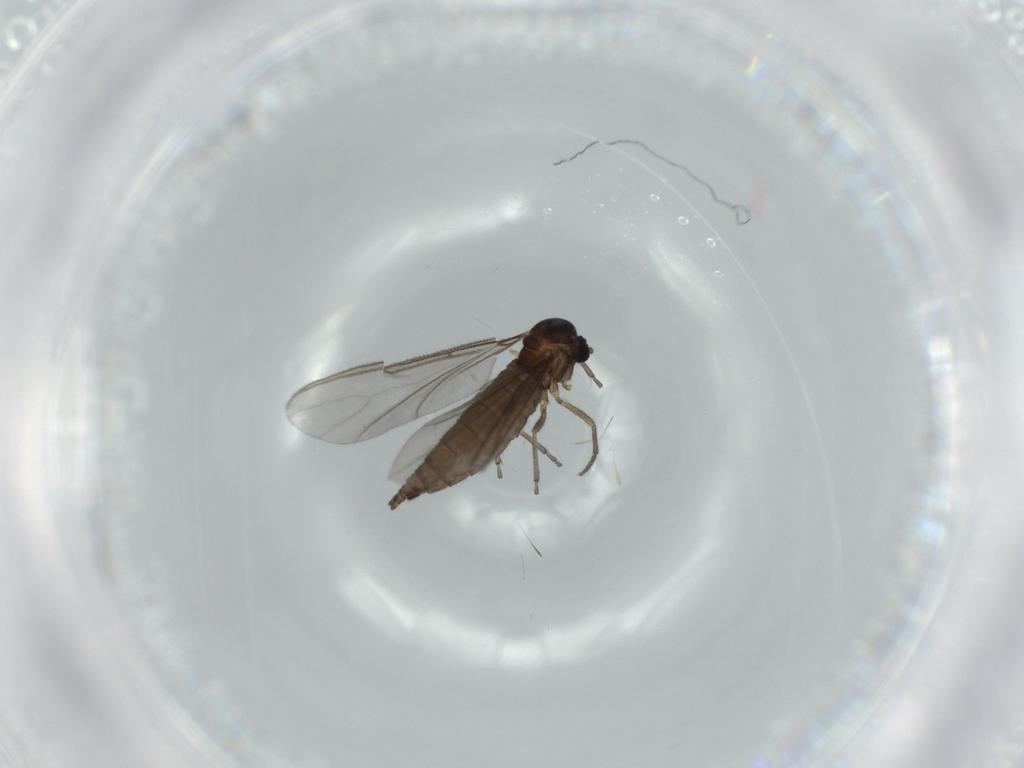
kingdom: Animalia
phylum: Arthropoda
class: Insecta
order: Diptera
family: Sciaridae
